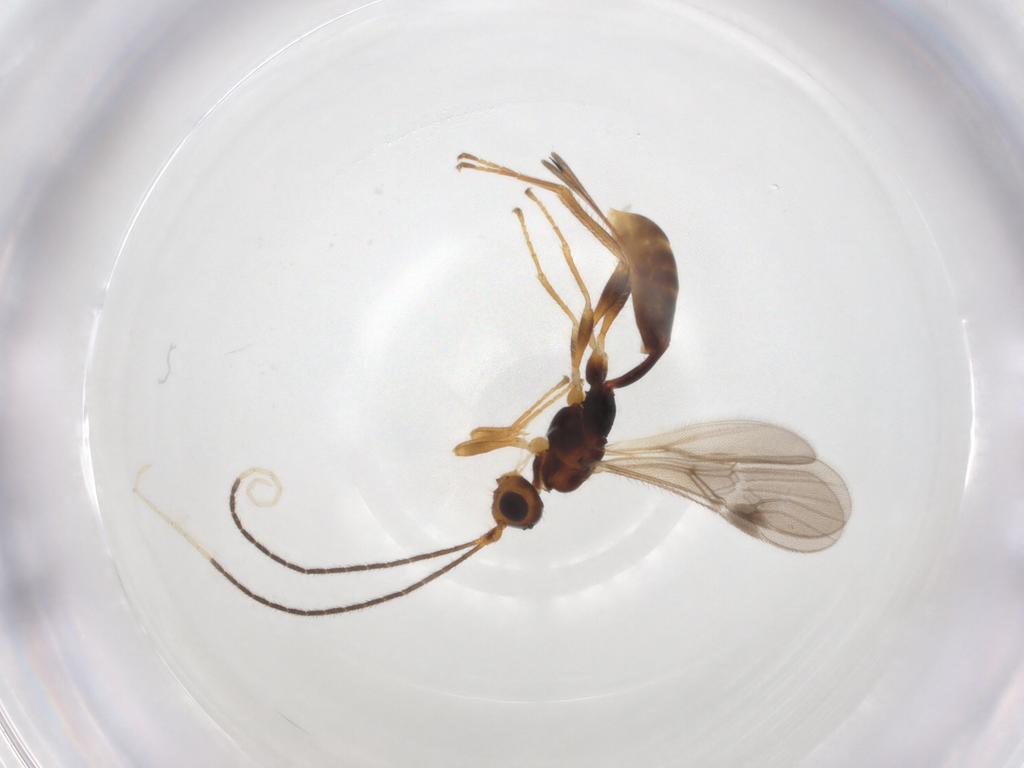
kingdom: Animalia
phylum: Arthropoda
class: Insecta
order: Hymenoptera
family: Braconidae
